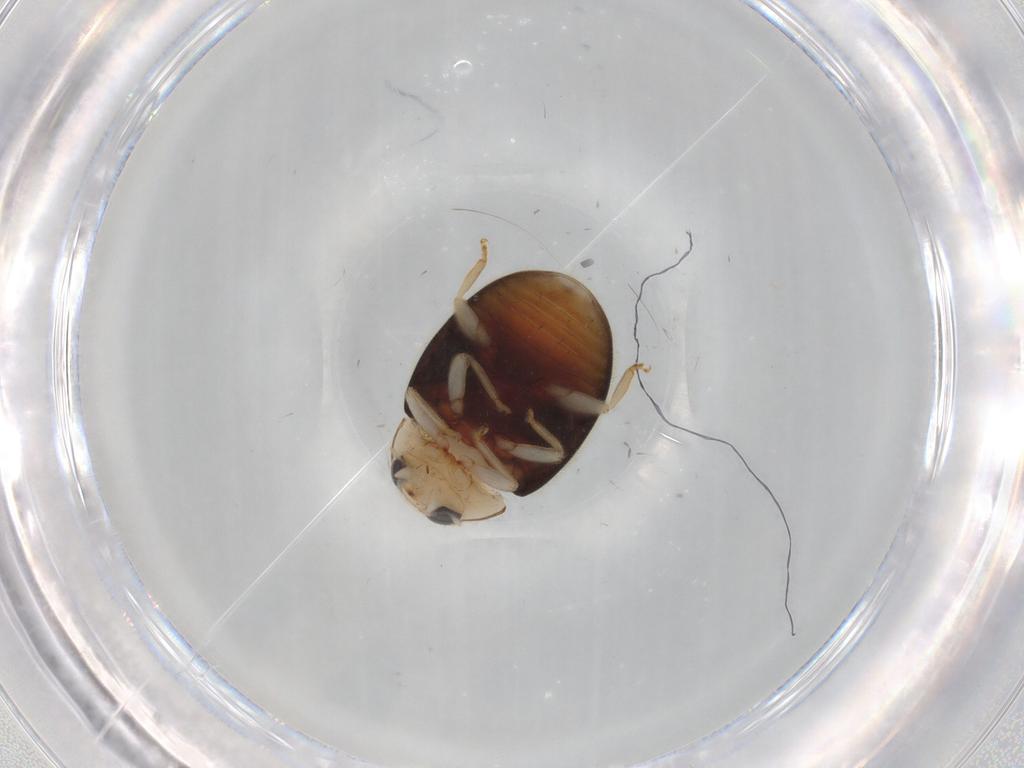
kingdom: Animalia
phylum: Arthropoda
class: Insecta
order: Coleoptera
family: Coccinellidae
